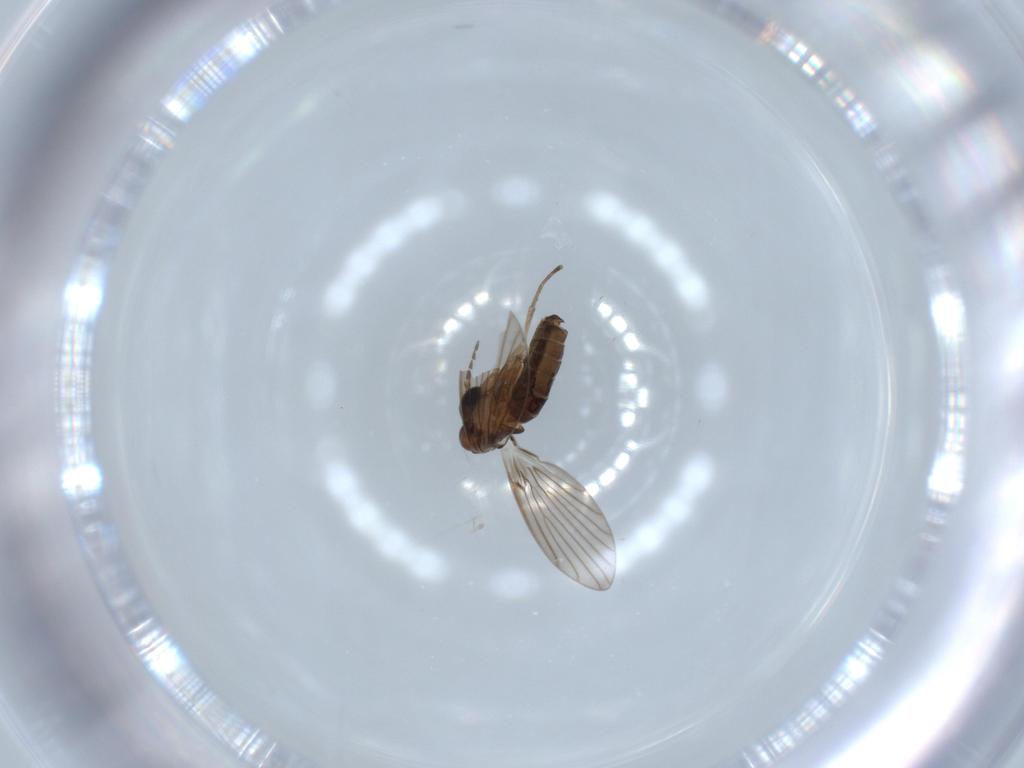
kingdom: Animalia
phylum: Arthropoda
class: Insecta
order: Diptera
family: Psychodidae
